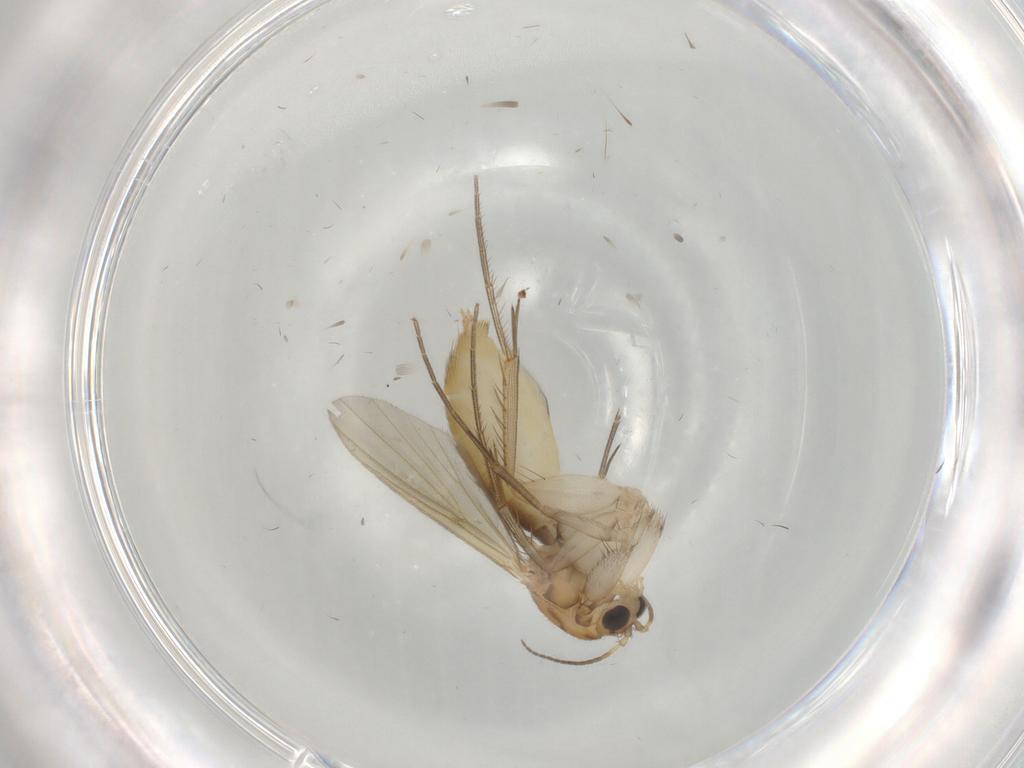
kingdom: Animalia
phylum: Arthropoda
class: Insecta
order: Diptera
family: Mycetophilidae
